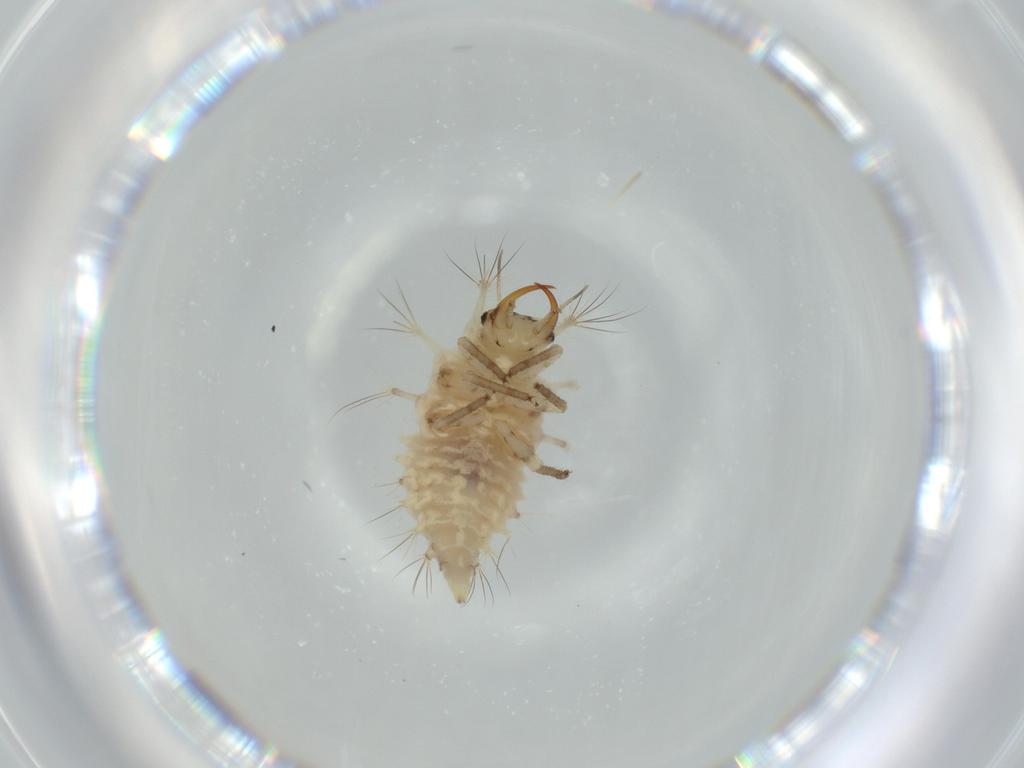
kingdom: Animalia
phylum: Arthropoda
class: Insecta
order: Neuroptera
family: Chrysopidae
